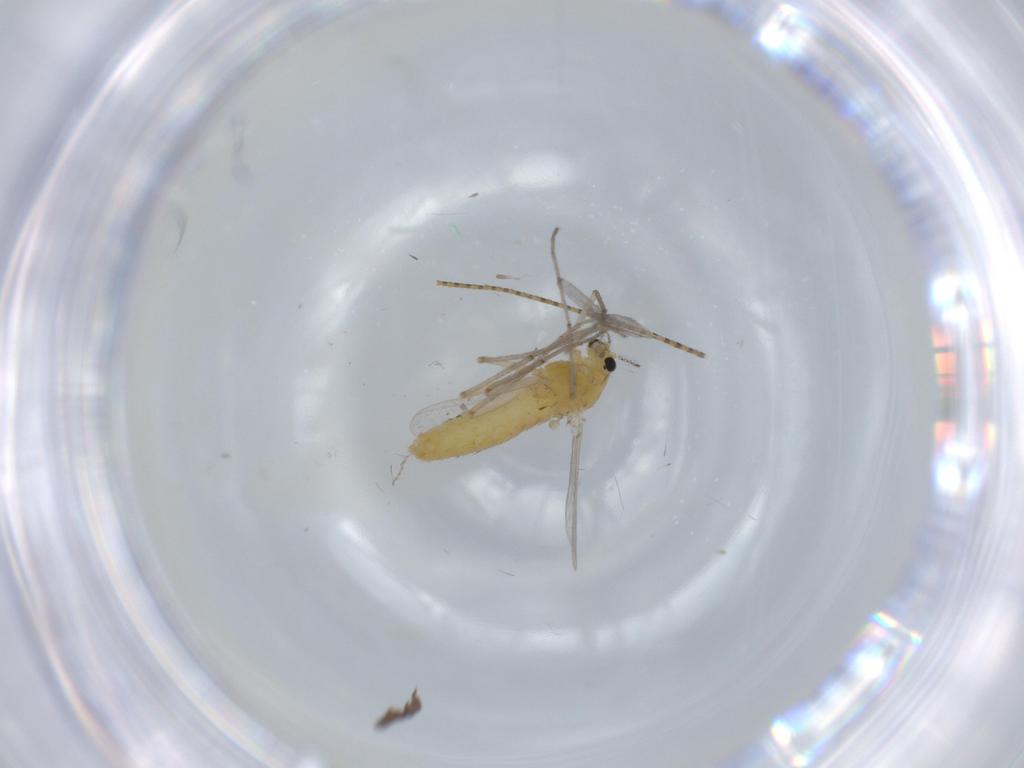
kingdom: Animalia
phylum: Arthropoda
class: Insecta
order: Diptera
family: Chironomidae
